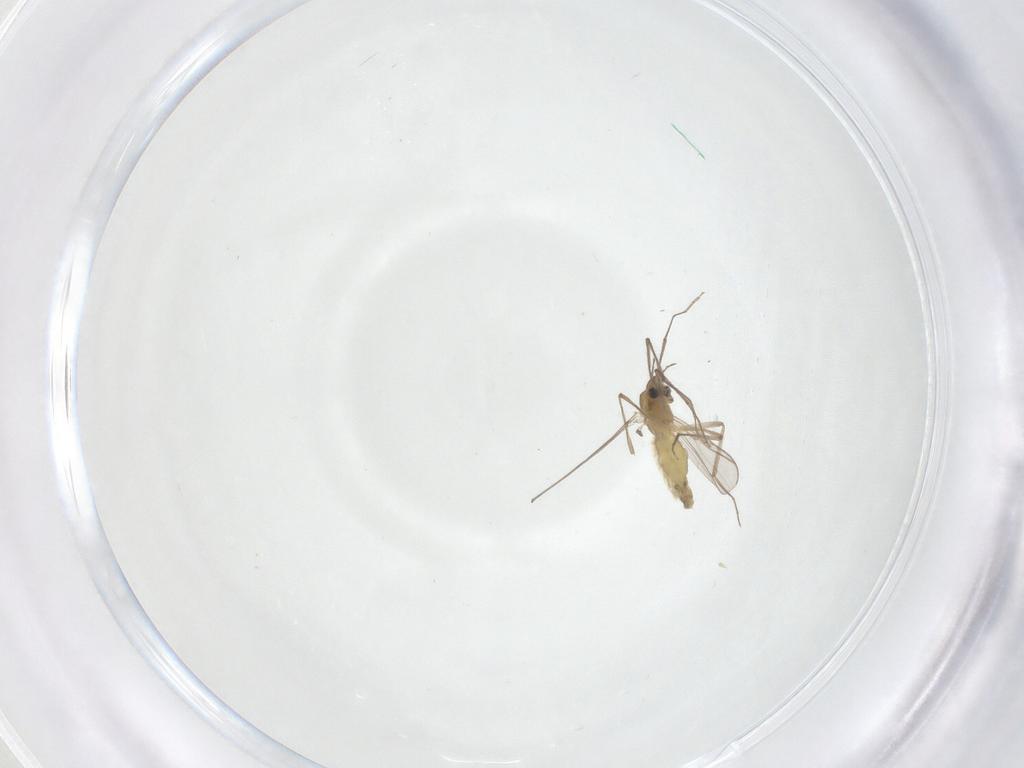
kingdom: Animalia
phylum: Arthropoda
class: Insecta
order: Diptera
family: Chironomidae
